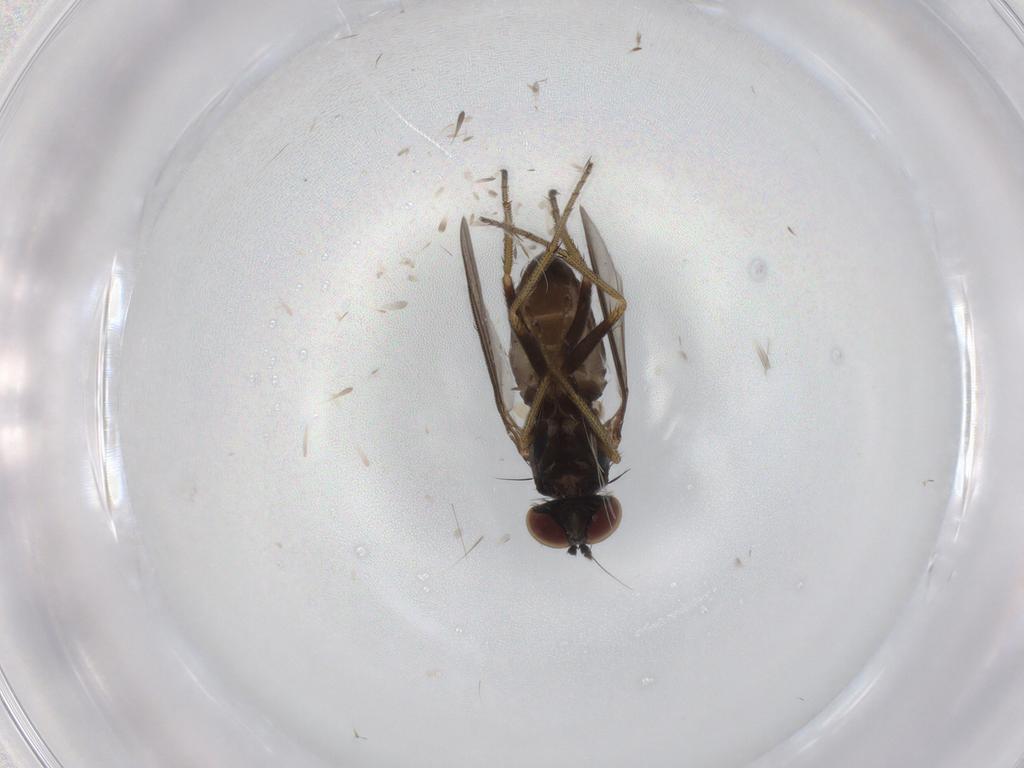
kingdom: Animalia
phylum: Arthropoda
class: Insecta
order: Diptera
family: Dolichopodidae
